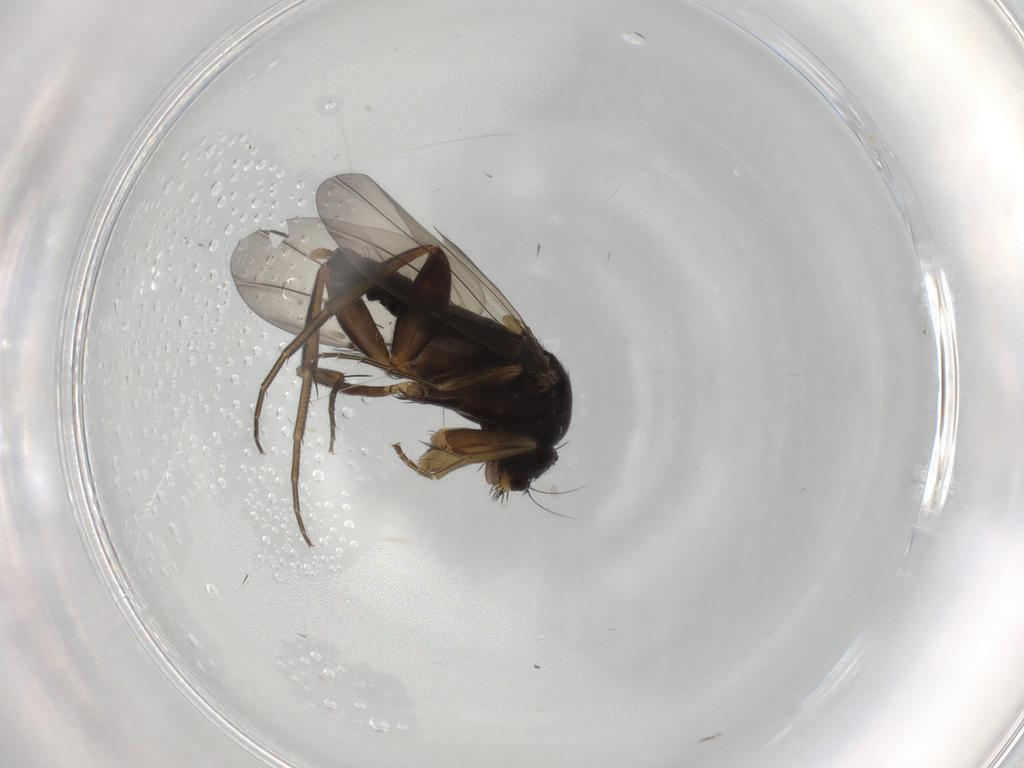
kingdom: Animalia
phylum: Arthropoda
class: Insecta
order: Diptera
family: Phoridae
